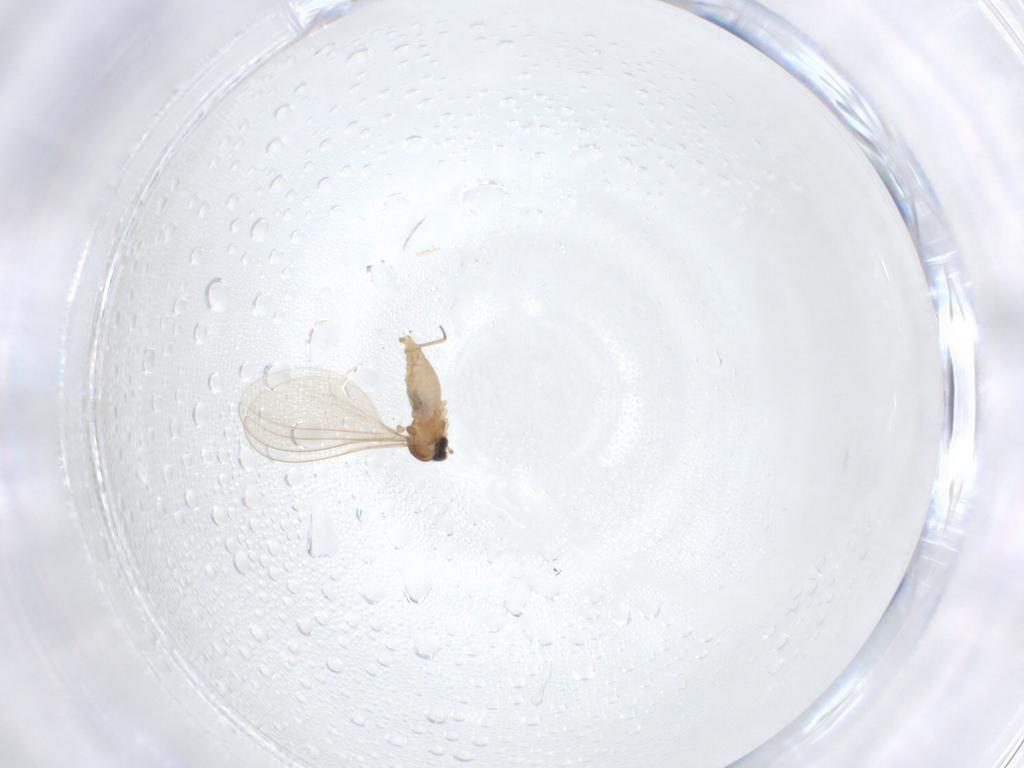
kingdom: Animalia
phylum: Arthropoda
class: Insecta
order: Diptera
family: Cecidomyiidae
